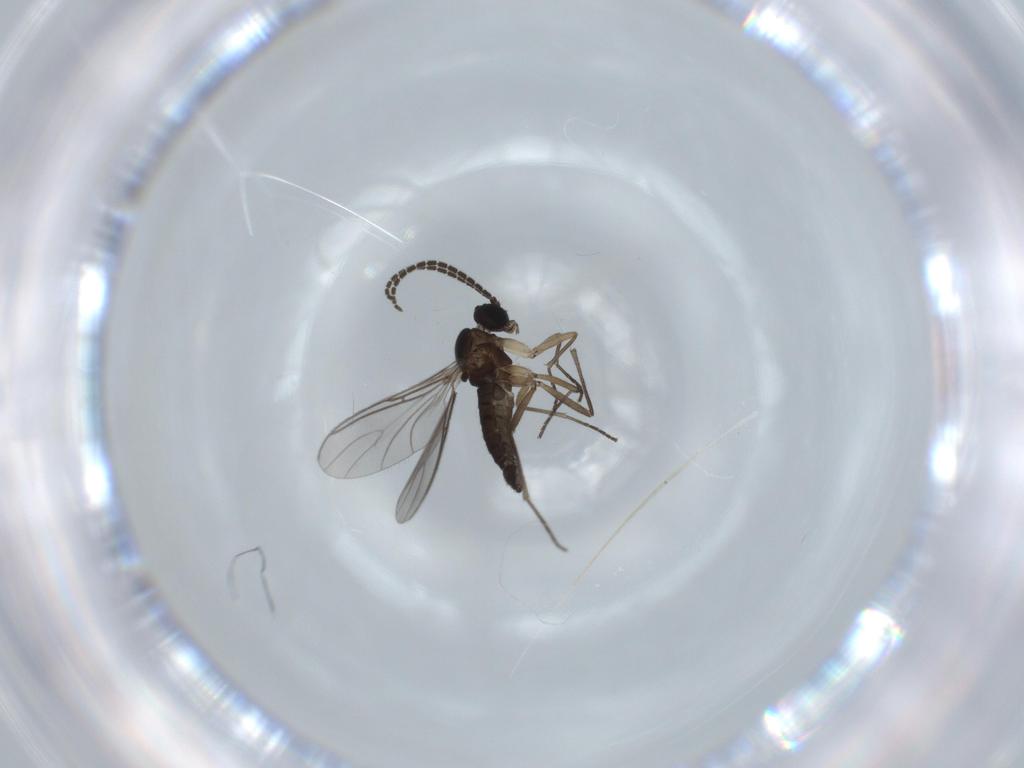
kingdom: Animalia
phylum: Arthropoda
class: Insecta
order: Diptera
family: Sciaridae
